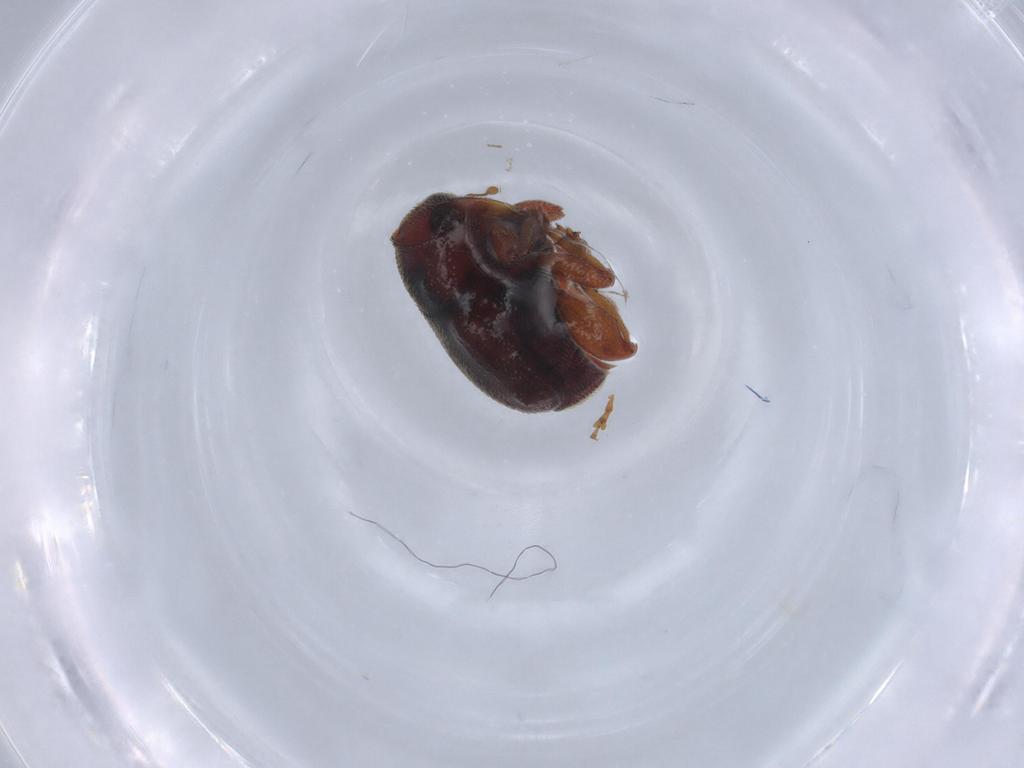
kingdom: Animalia
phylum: Arthropoda
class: Insecta
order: Coleoptera
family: Curculionidae
